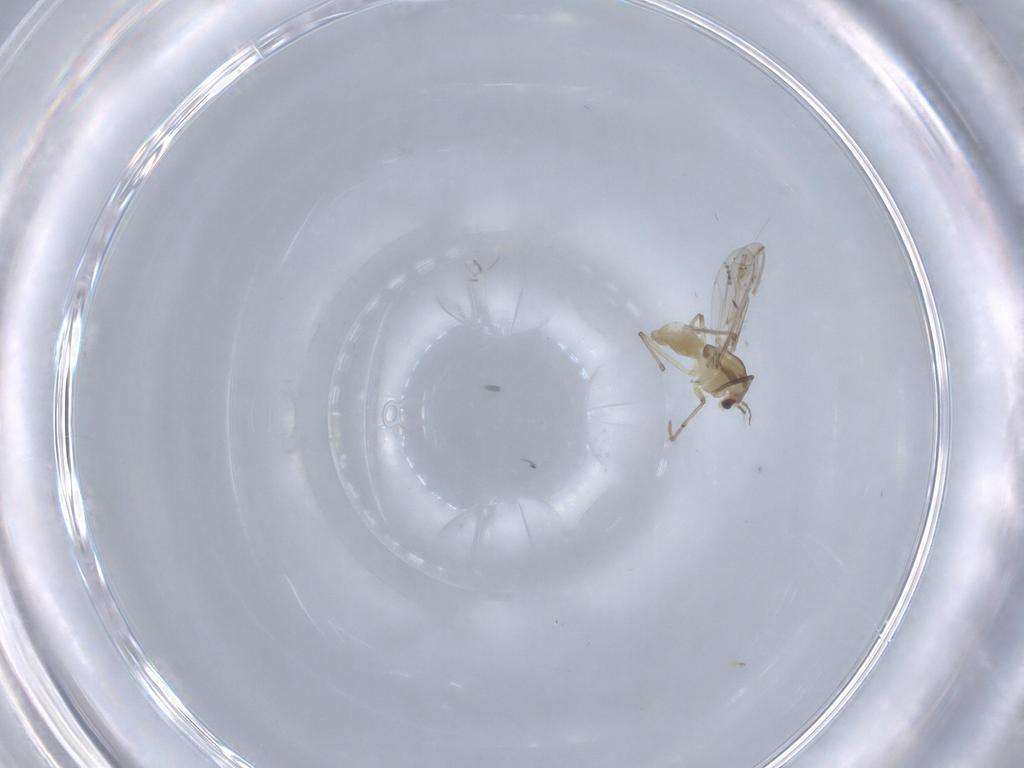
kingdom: Animalia
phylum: Arthropoda
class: Insecta
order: Diptera
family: Chironomidae
